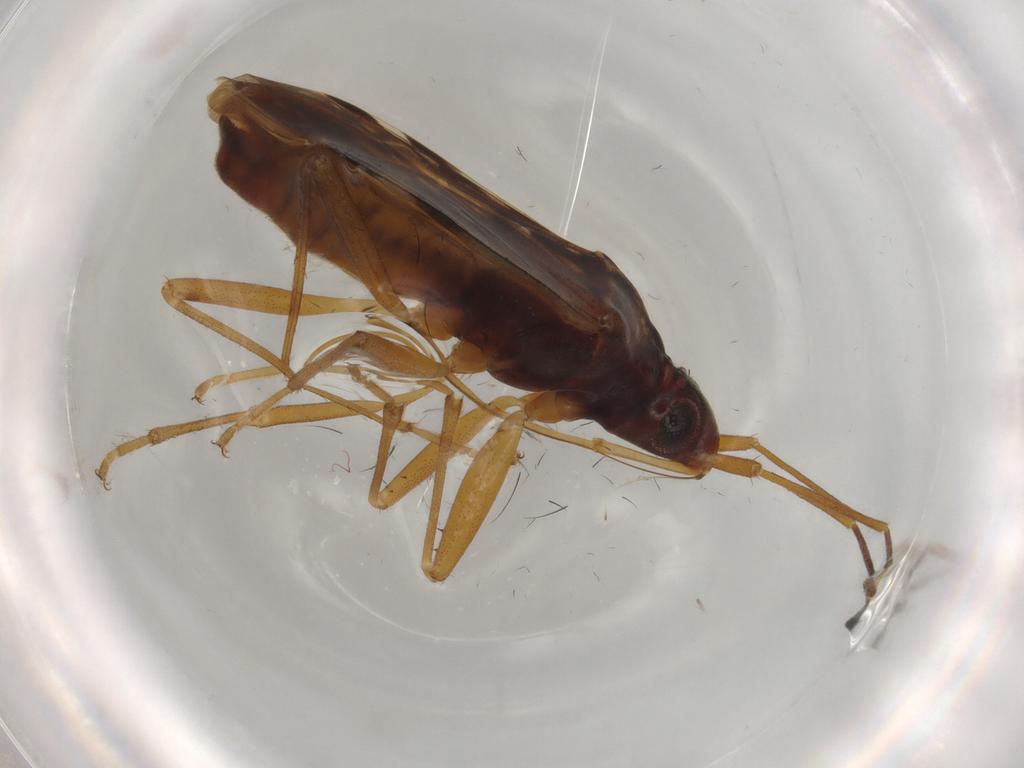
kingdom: Animalia
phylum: Arthropoda
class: Insecta
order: Hemiptera
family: Rhyparochromidae
